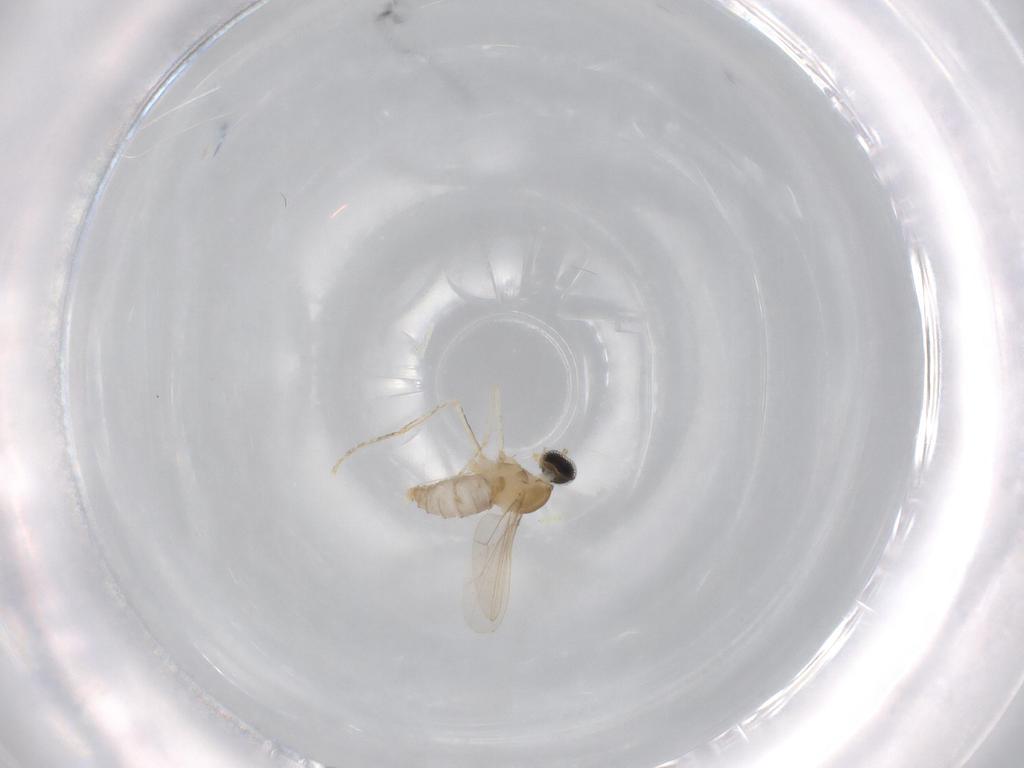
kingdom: Animalia
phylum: Arthropoda
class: Insecta
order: Diptera
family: Cecidomyiidae
